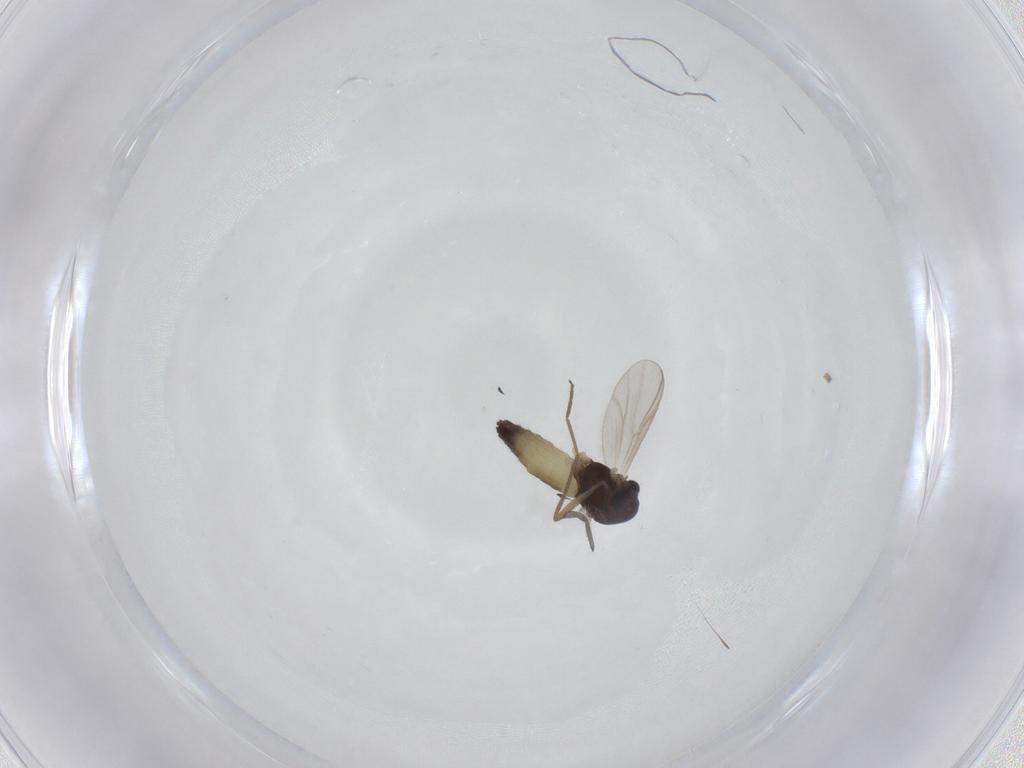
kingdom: Animalia
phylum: Arthropoda
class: Insecta
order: Diptera
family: Chironomidae
